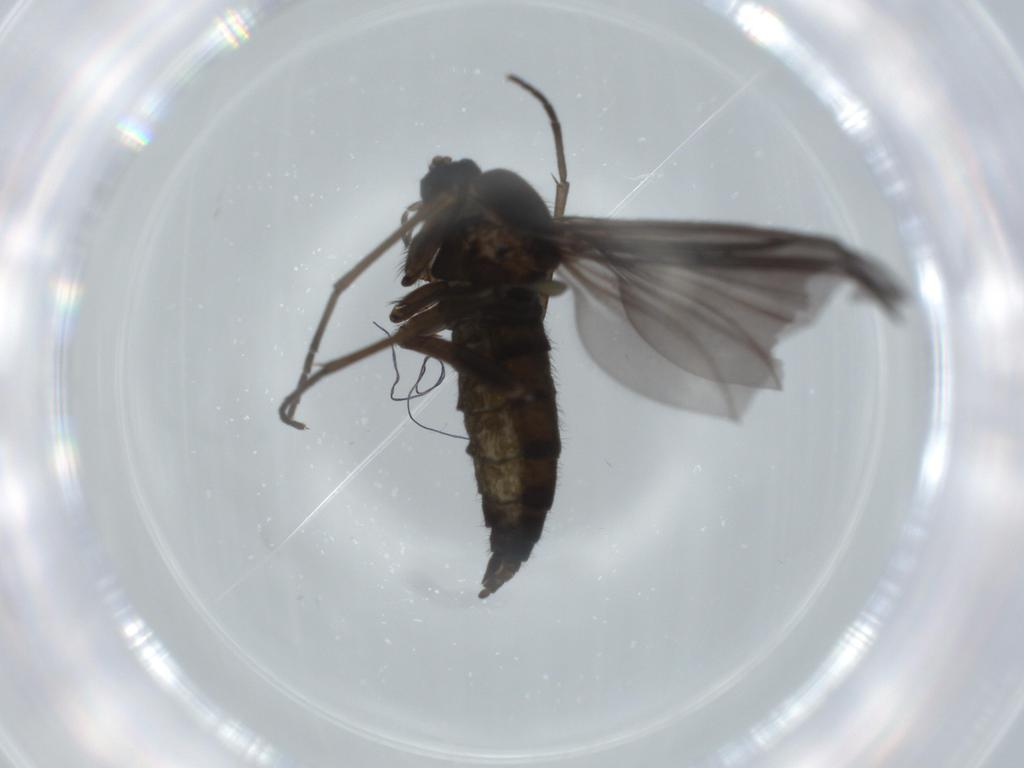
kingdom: Animalia
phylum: Arthropoda
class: Insecta
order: Diptera
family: Sciaridae
